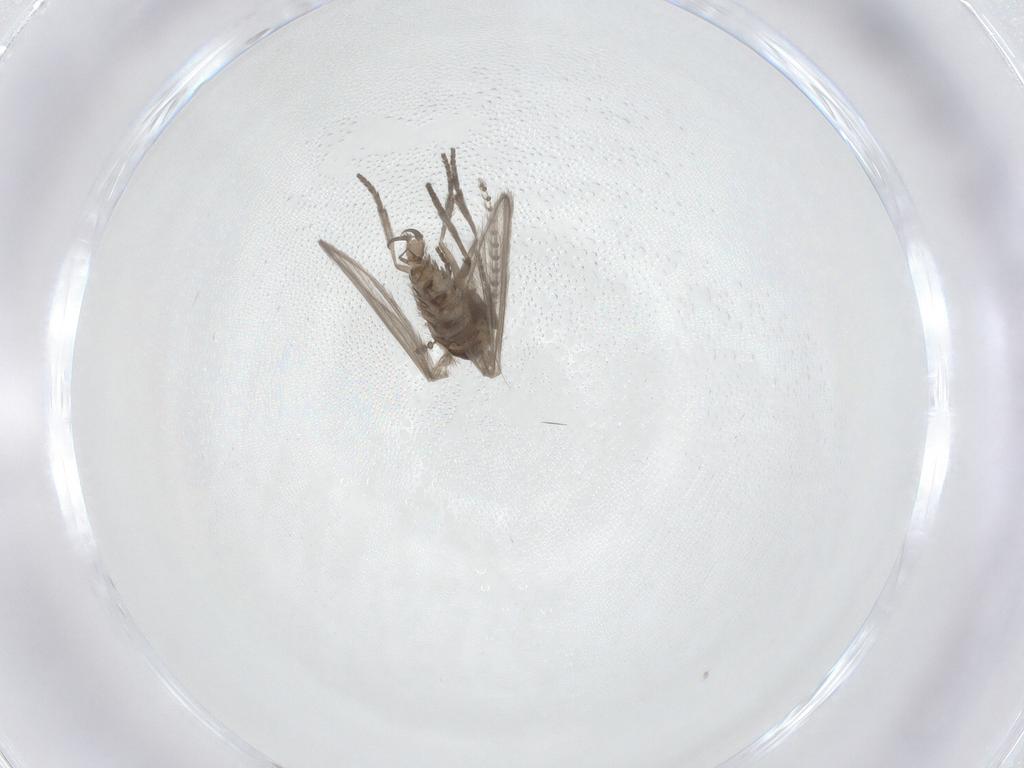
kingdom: Animalia
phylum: Arthropoda
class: Insecta
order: Diptera
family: Psychodidae
